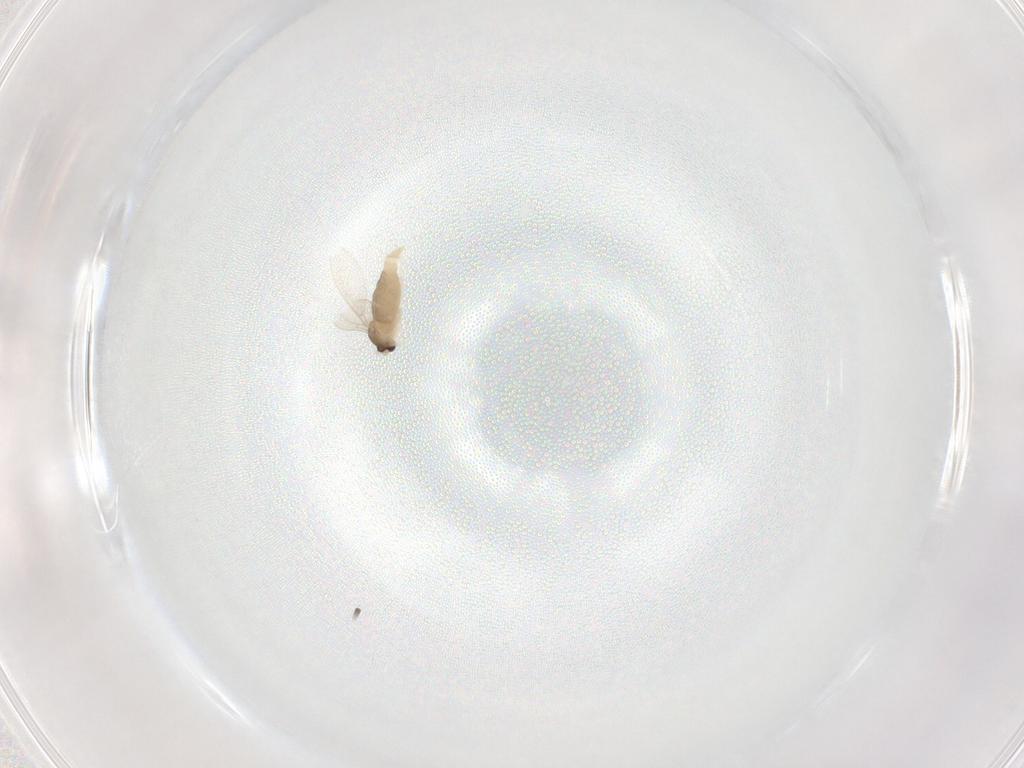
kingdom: Animalia
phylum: Arthropoda
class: Insecta
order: Diptera
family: Cecidomyiidae
